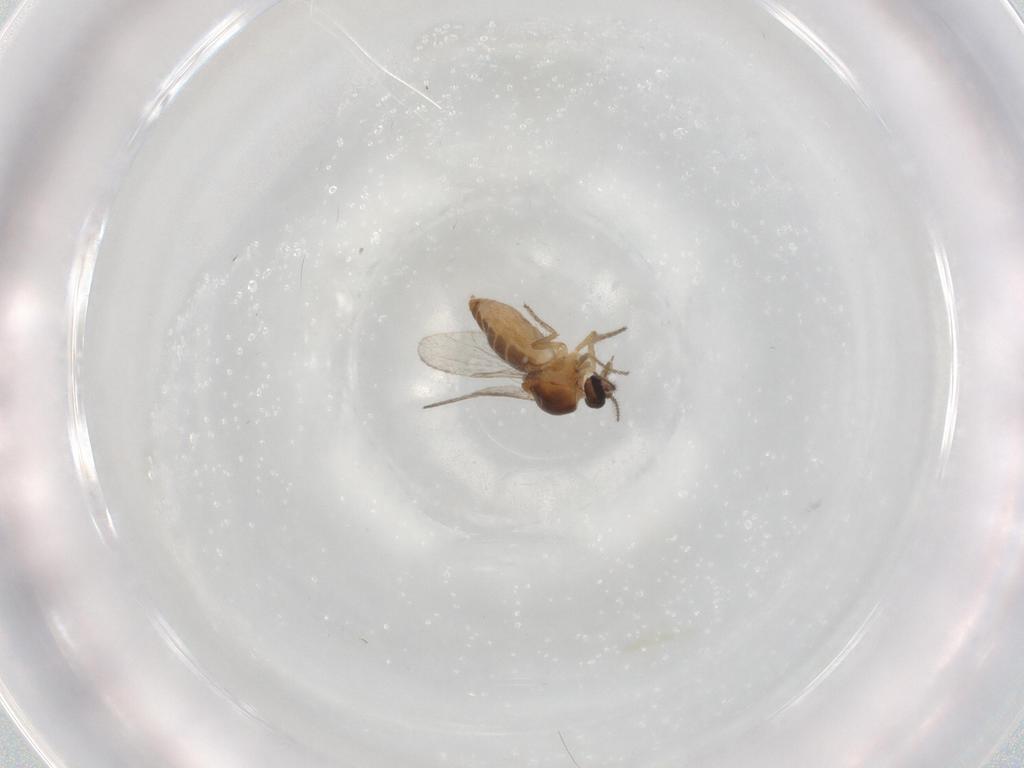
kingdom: Animalia
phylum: Arthropoda
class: Insecta
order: Diptera
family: Ceratopogonidae
